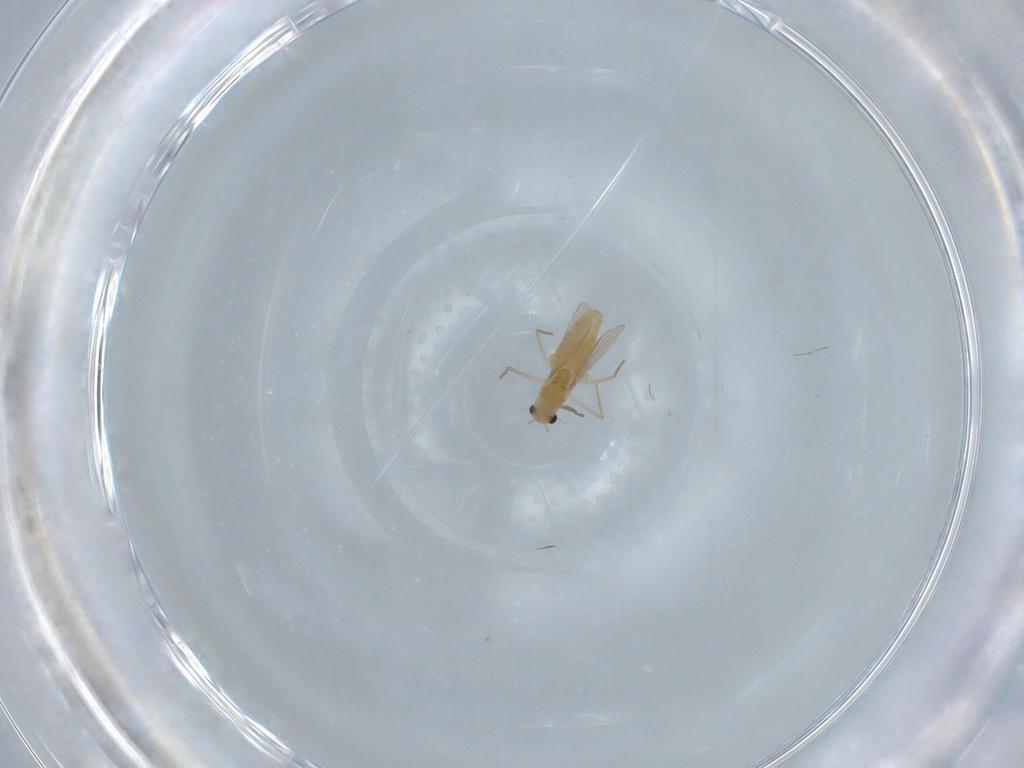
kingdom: Animalia
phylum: Arthropoda
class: Insecta
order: Diptera
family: Chironomidae
